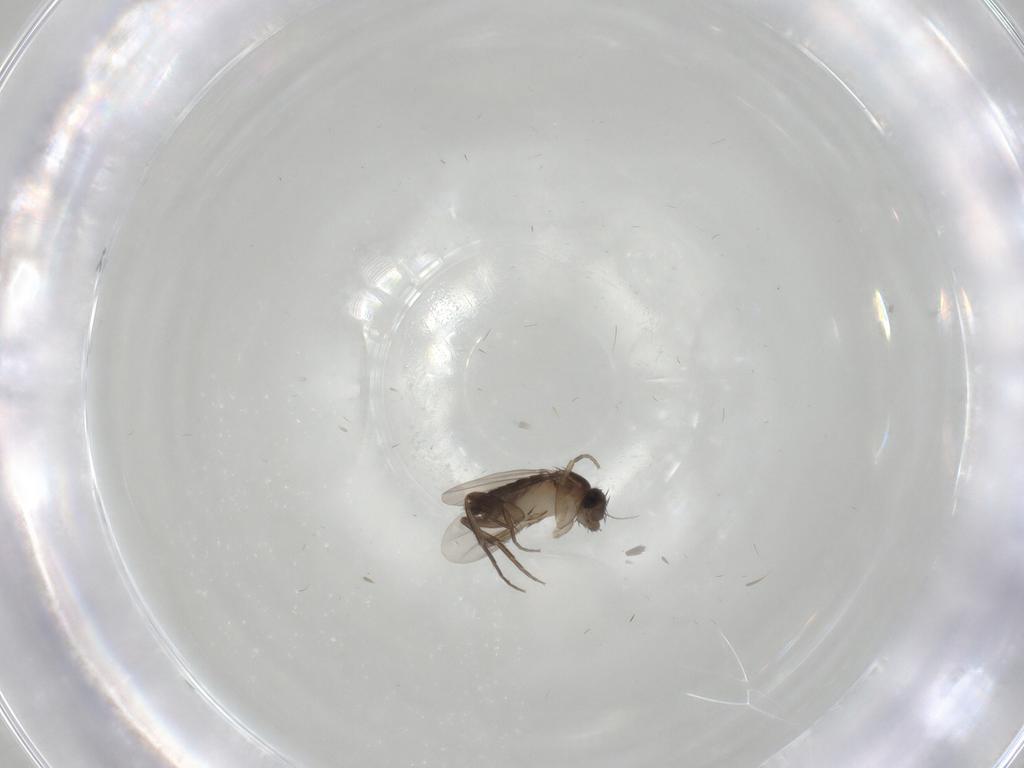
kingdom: Animalia
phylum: Arthropoda
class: Insecta
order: Diptera
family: Phoridae
